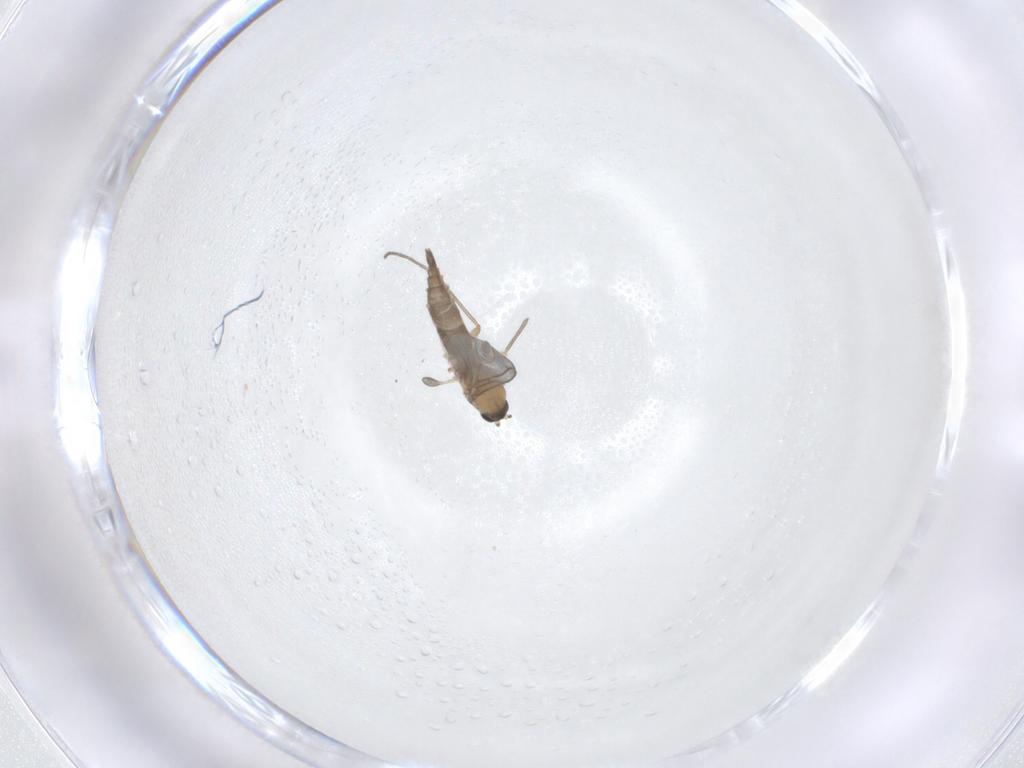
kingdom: Animalia
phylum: Arthropoda
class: Insecta
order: Diptera
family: Sciaridae
